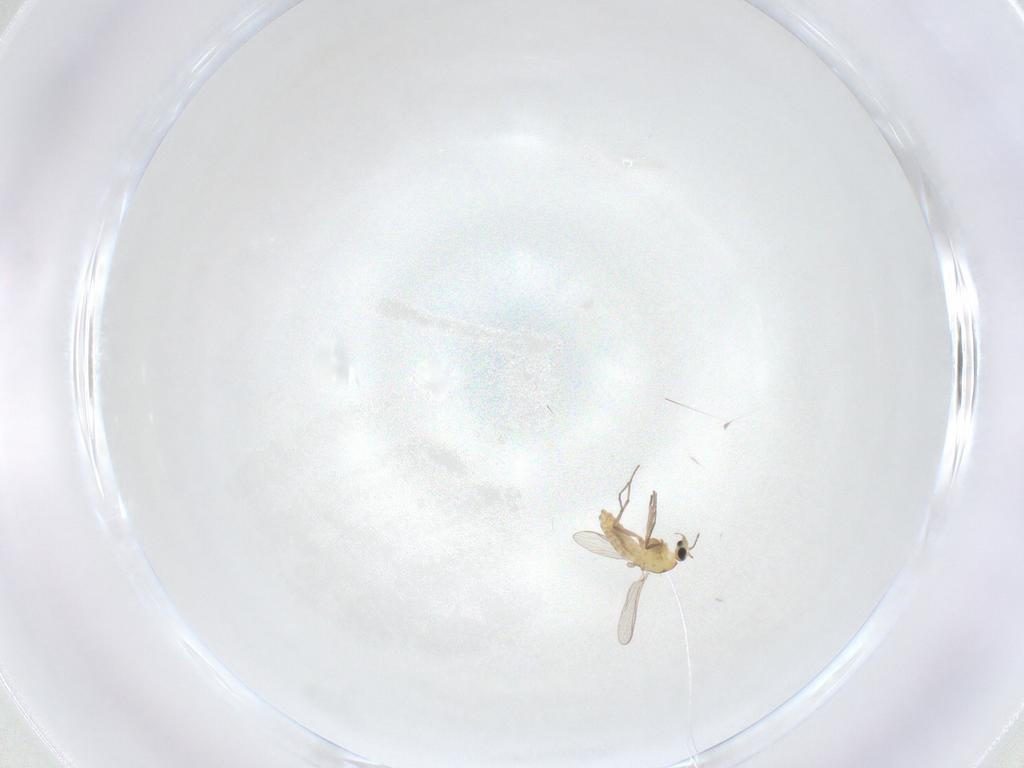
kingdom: Animalia
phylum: Arthropoda
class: Insecta
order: Diptera
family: Chironomidae
